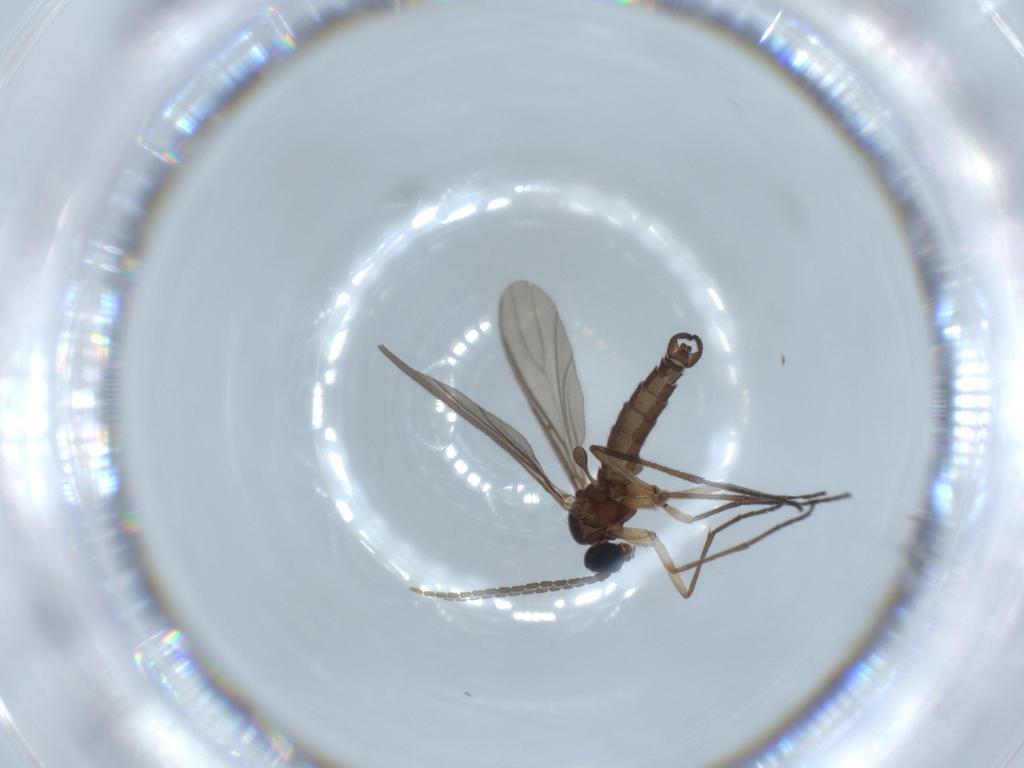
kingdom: Animalia
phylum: Arthropoda
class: Insecta
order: Diptera
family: Sciaridae
